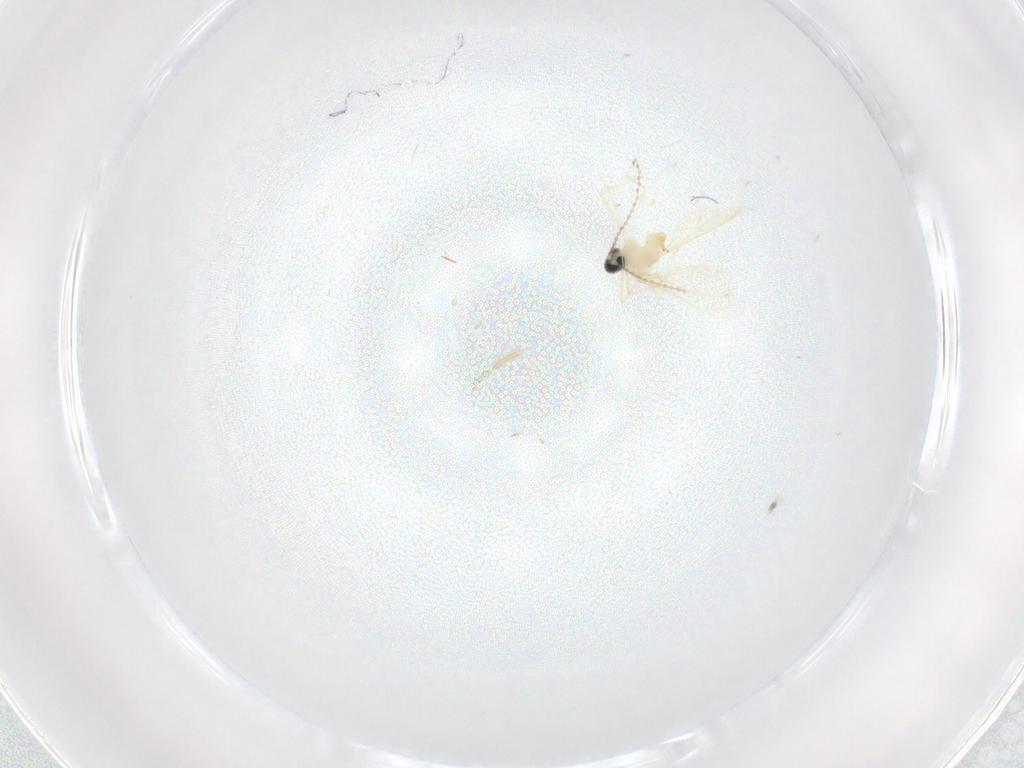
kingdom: Animalia
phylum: Arthropoda
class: Insecta
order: Diptera
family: Cecidomyiidae
